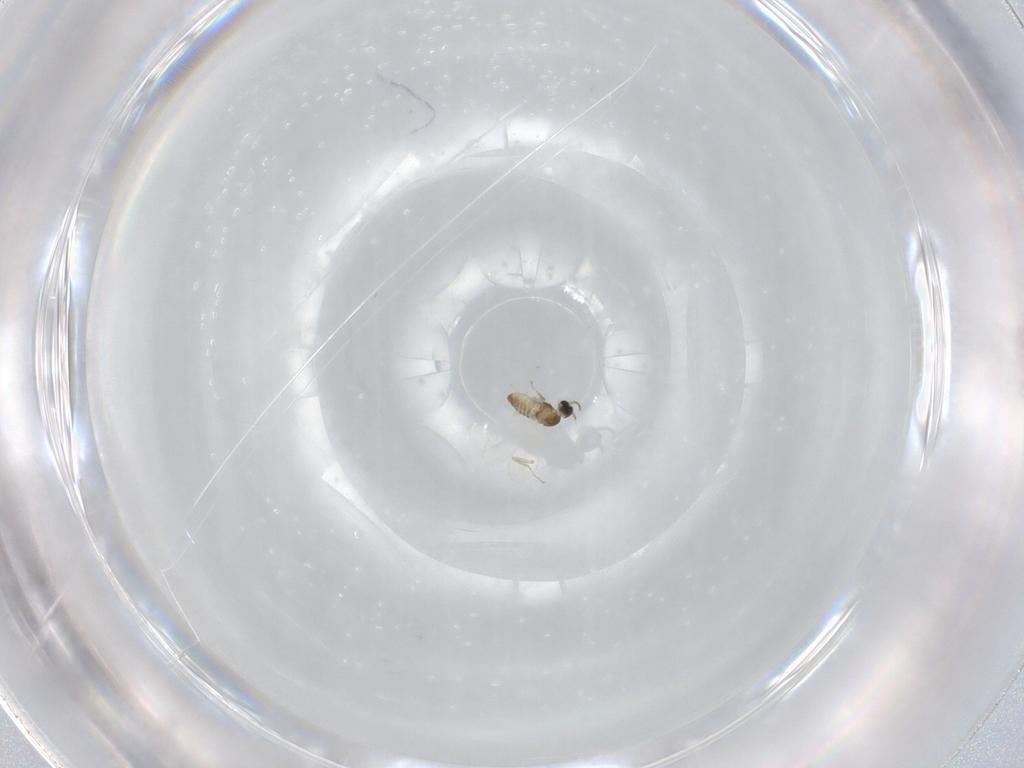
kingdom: Animalia
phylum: Arthropoda
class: Insecta
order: Diptera
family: Cecidomyiidae
